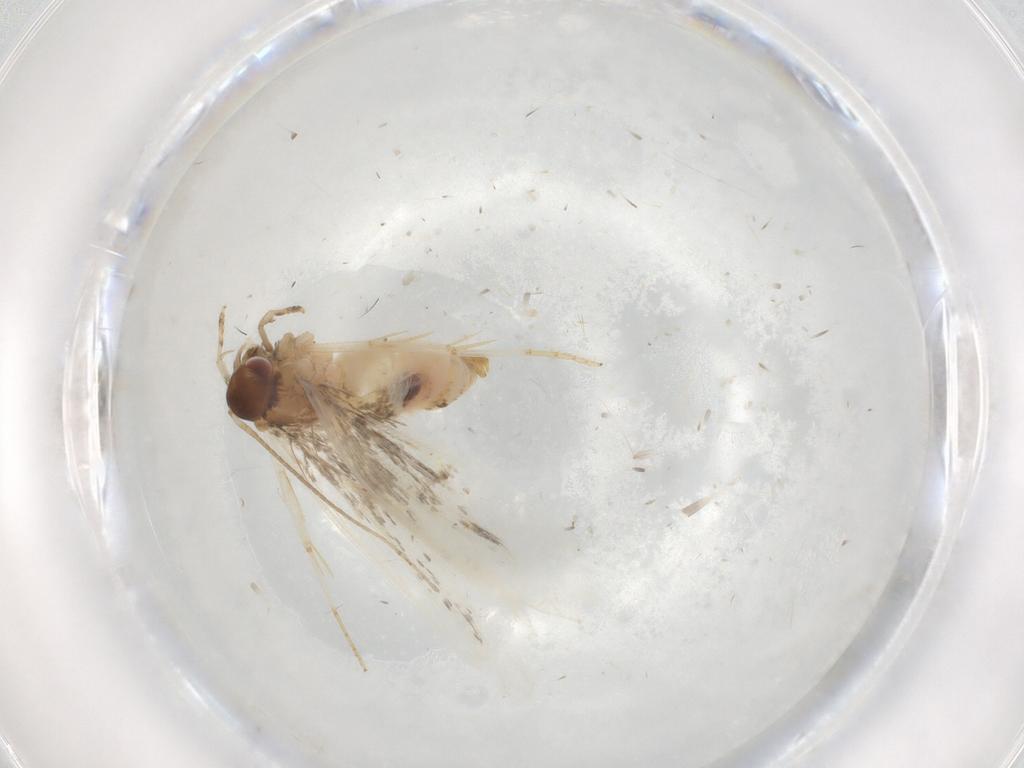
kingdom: Animalia
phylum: Arthropoda
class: Insecta
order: Lepidoptera
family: Oecophoridae
